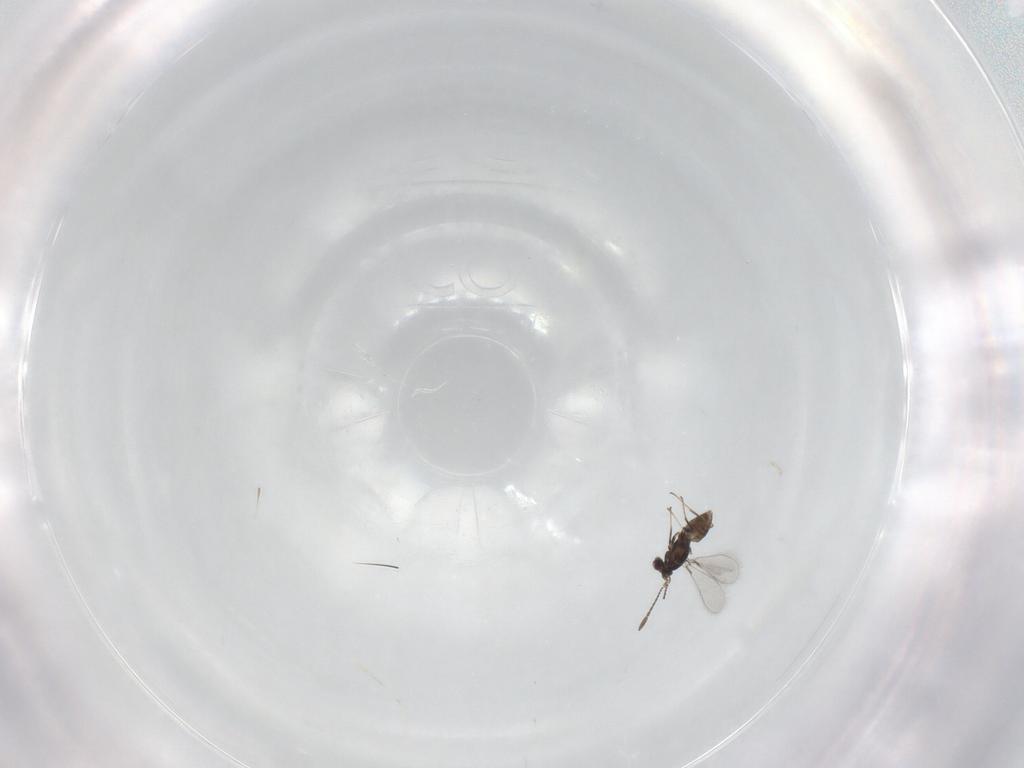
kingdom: Animalia
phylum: Arthropoda
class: Insecta
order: Hymenoptera
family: Mymaridae
